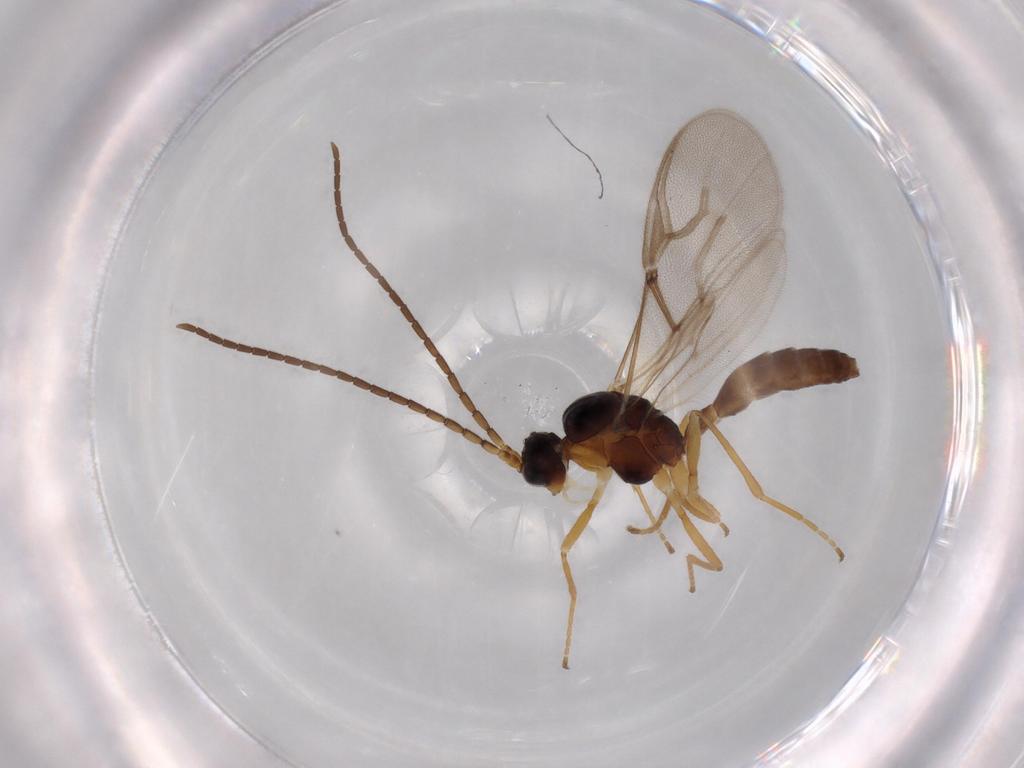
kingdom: Animalia
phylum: Arthropoda
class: Insecta
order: Hymenoptera
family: Braconidae
